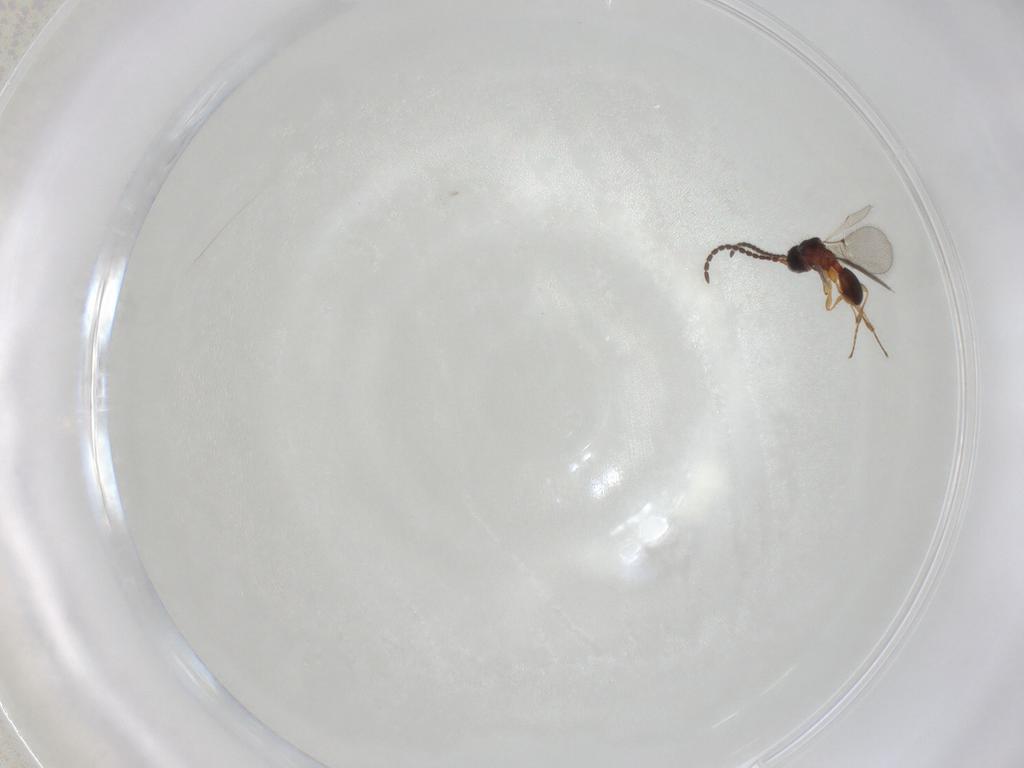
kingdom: Animalia
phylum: Arthropoda
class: Insecta
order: Hymenoptera
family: Diapriidae
